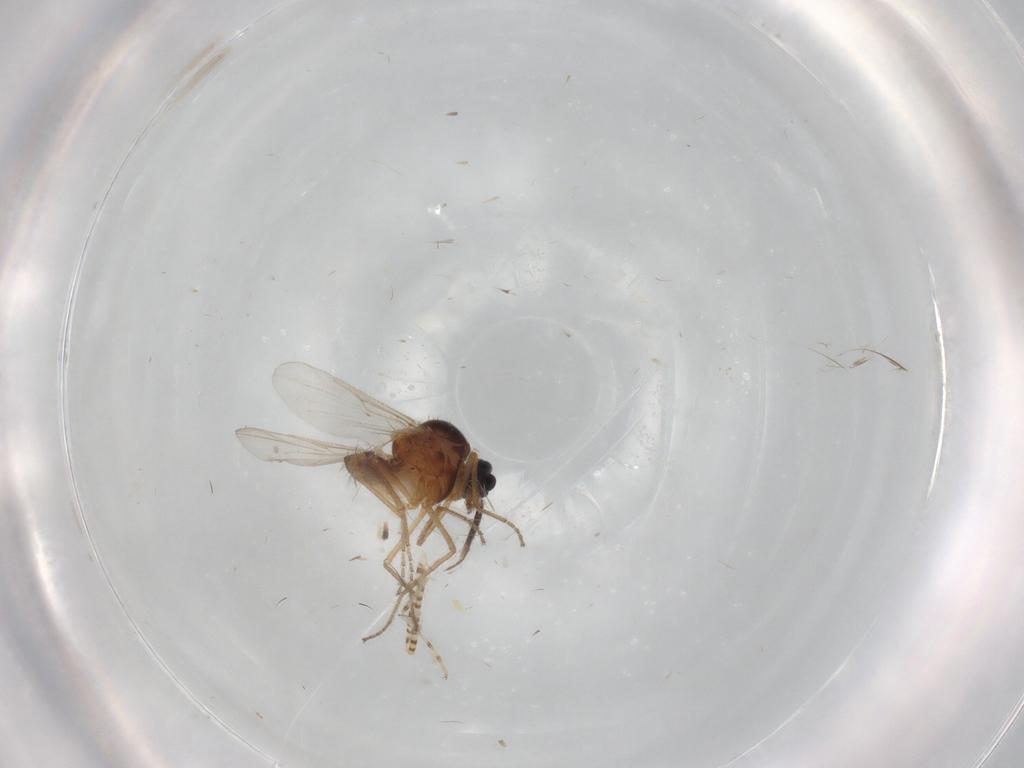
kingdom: Animalia
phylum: Arthropoda
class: Insecta
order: Diptera
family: Ceratopogonidae
